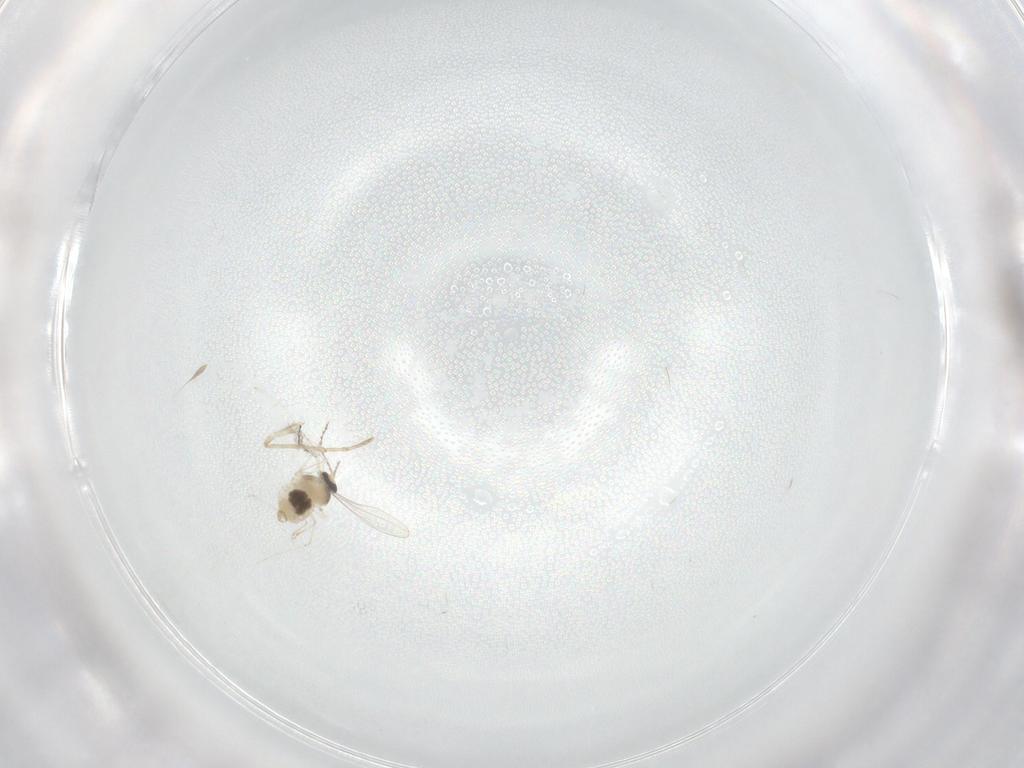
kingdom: Animalia
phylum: Arthropoda
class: Insecta
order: Diptera
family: Cecidomyiidae
